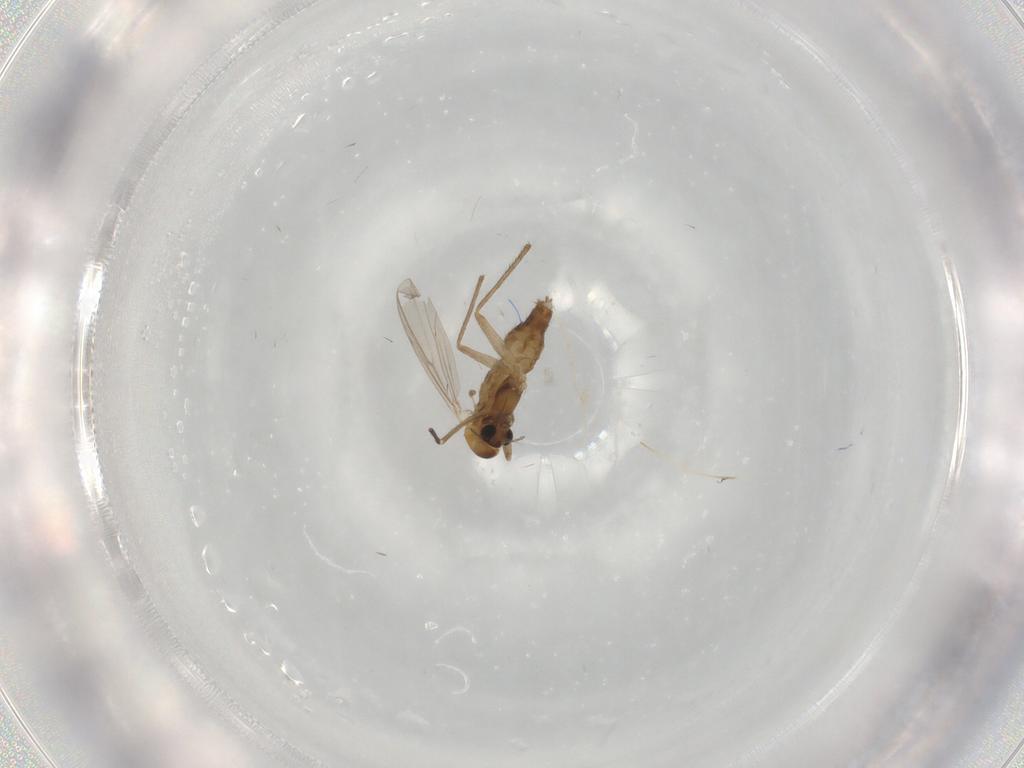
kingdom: Animalia
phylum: Arthropoda
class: Insecta
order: Diptera
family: Chironomidae
